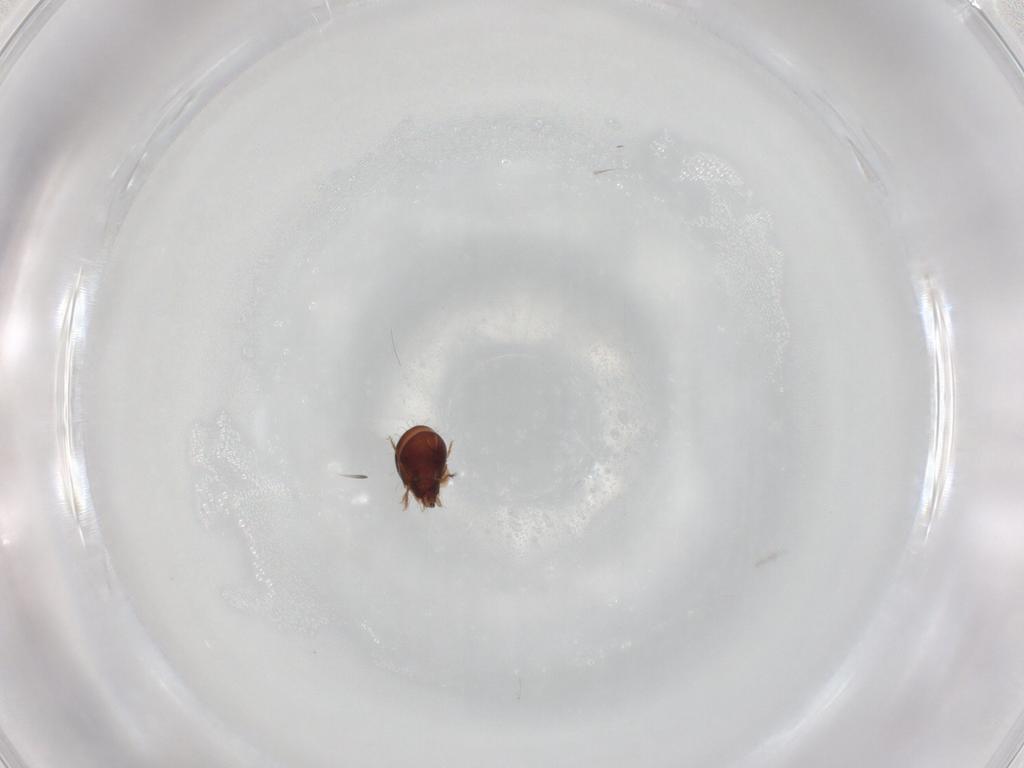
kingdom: Animalia
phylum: Arthropoda
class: Arachnida
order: Sarcoptiformes
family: Humerobatidae
